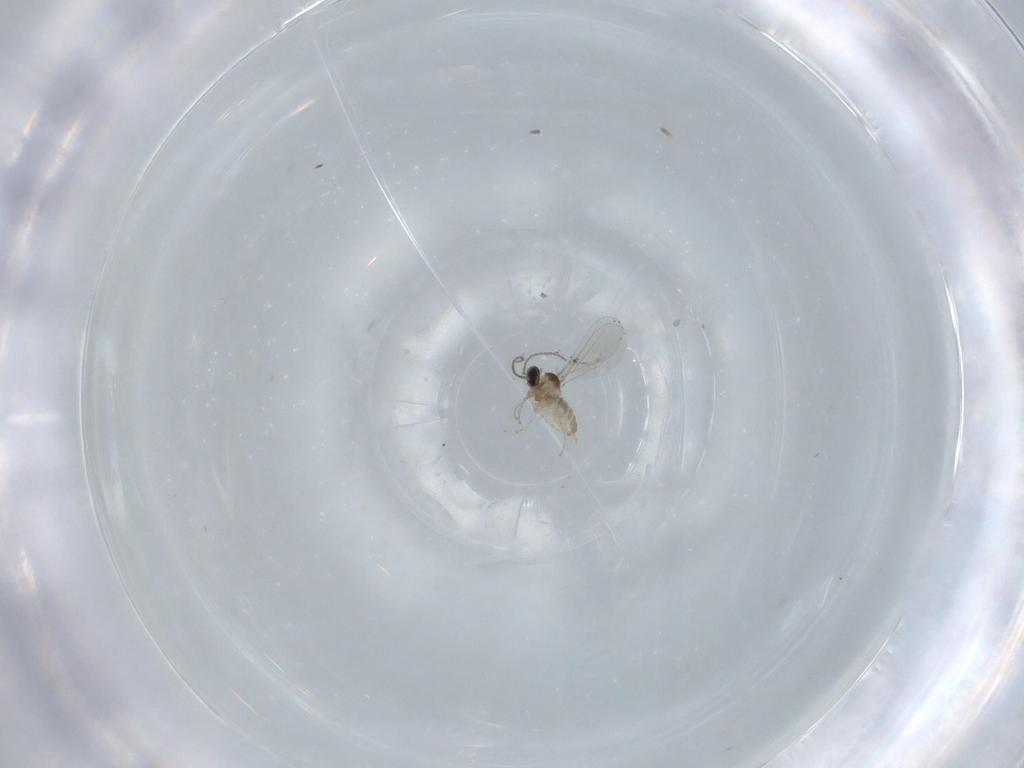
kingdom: Animalia
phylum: Arthropoda
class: Insecta
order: Diptera
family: Cecidomyiidae
